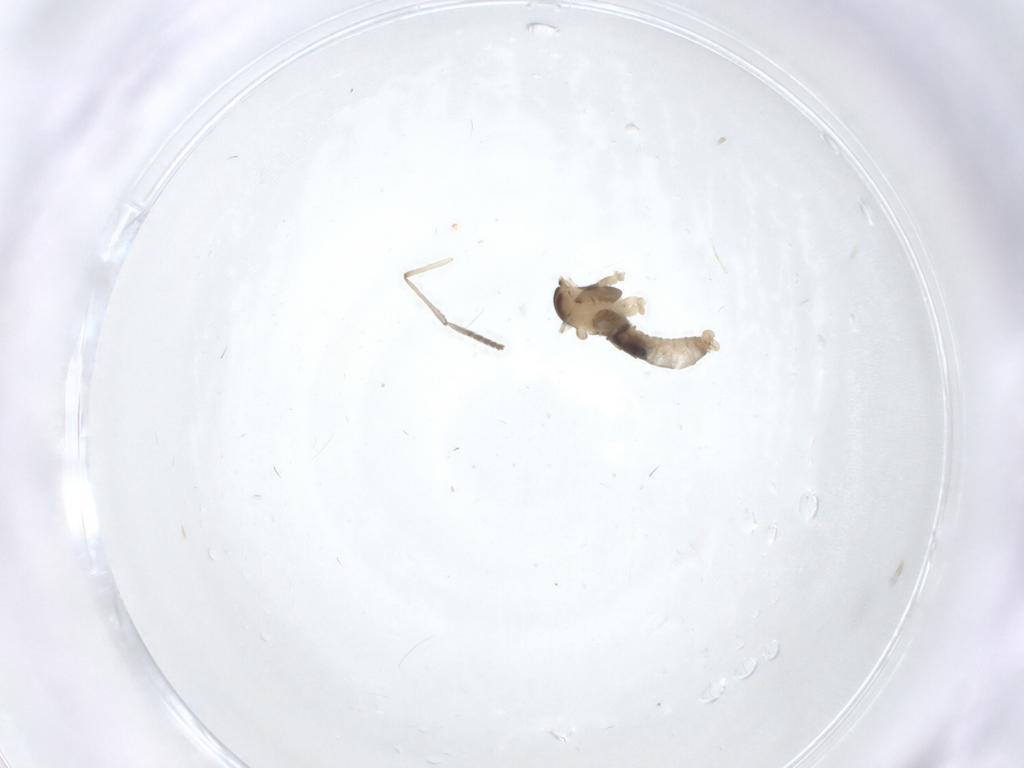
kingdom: Animalia
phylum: Arthropoda
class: Insecta
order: Diptera
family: Psychodidae
